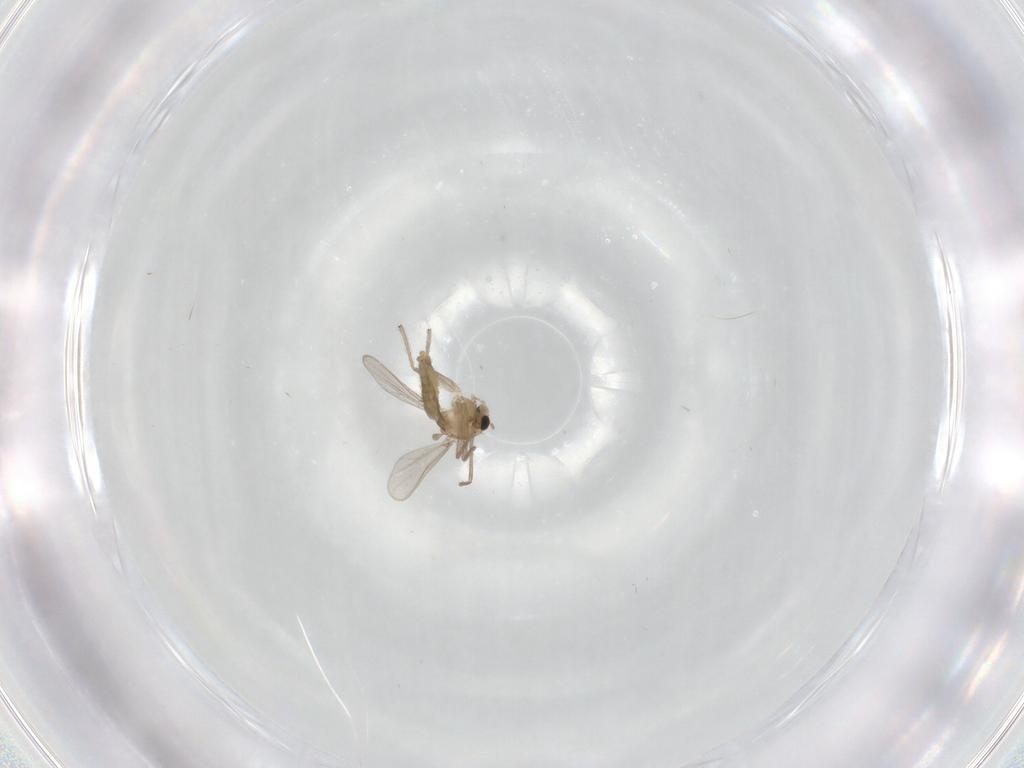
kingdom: Animalia
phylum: Arthropoda
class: Insecta
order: Diptera
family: Chironomidae
